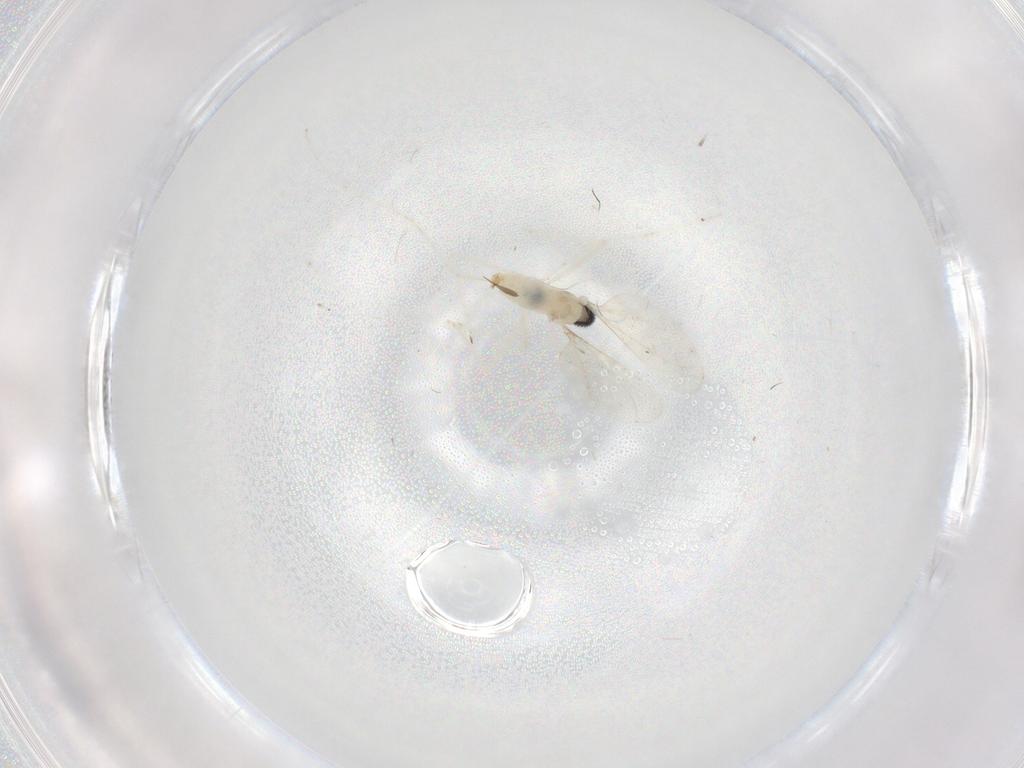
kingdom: Animalia
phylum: Arthropoda
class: Insecta
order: Diptera
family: Cecidomyiidae
